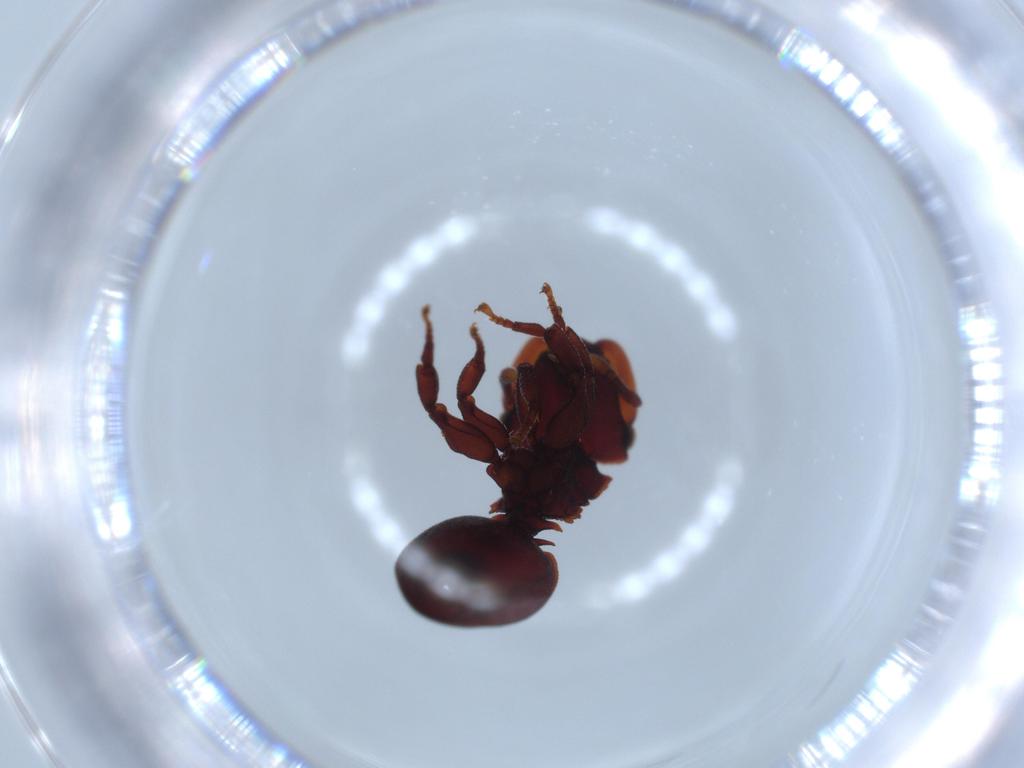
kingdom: Animalia
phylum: Arthropoda
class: Insecta
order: Hymenoptera
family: Formicidae
